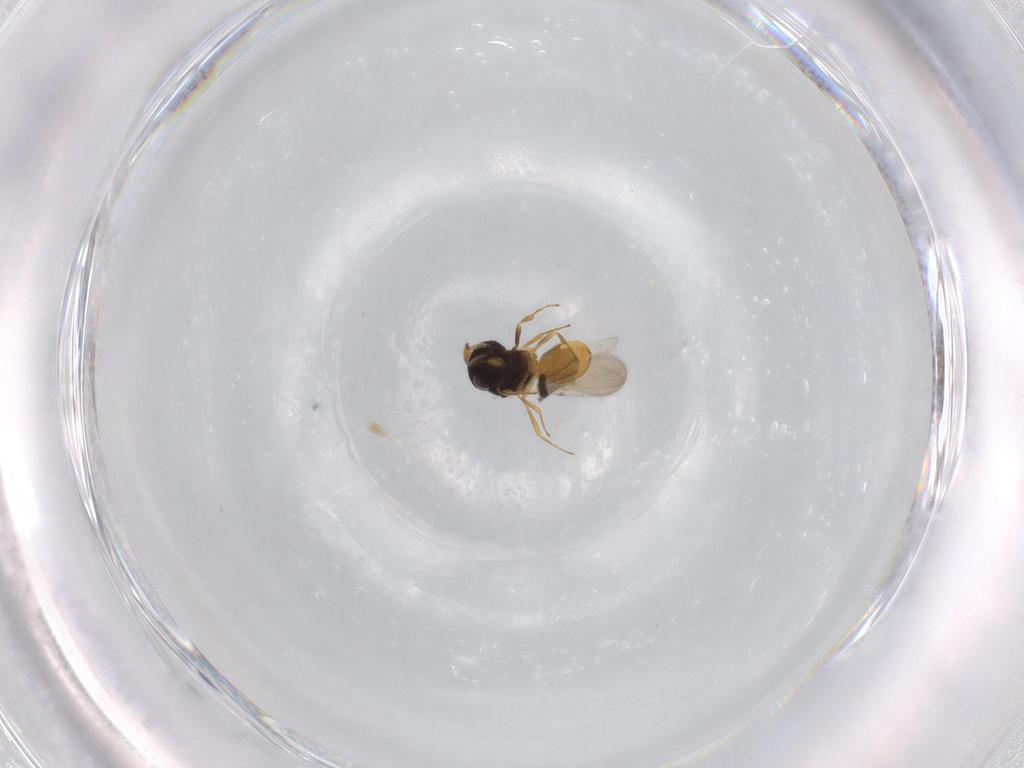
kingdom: Animalia
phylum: Arthropoda
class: Insecta
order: Hymenoptera
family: Scelionidae
